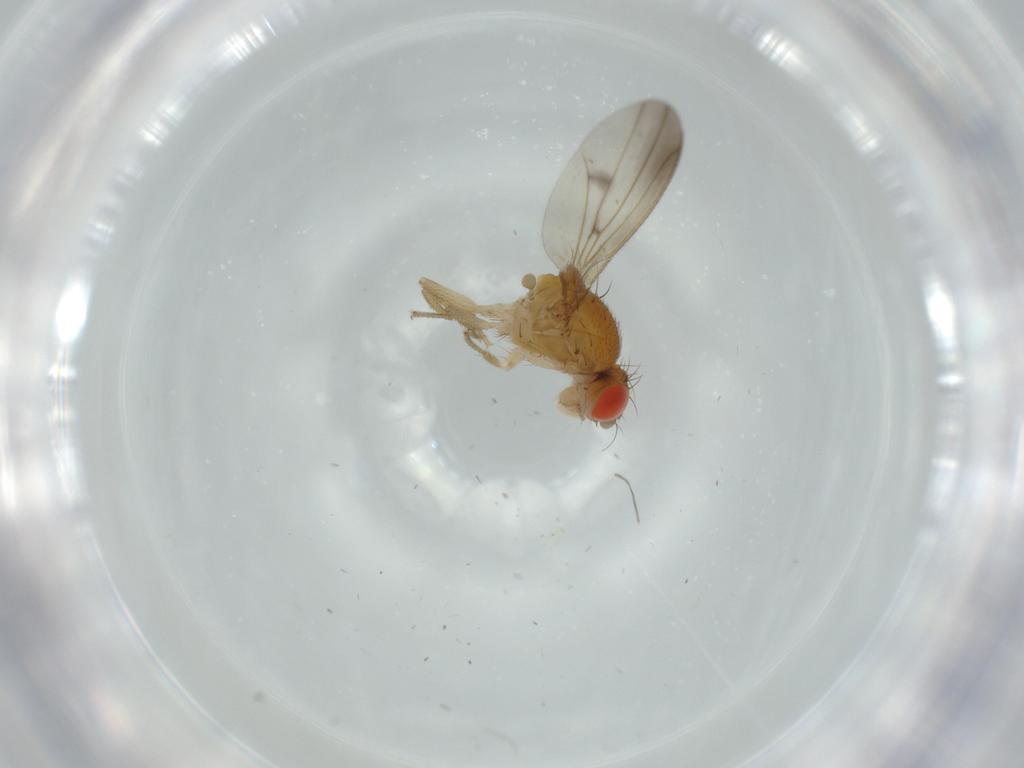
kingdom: Animalia
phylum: Arthropoda
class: Insecta
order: Diptera
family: Drosophilidae
